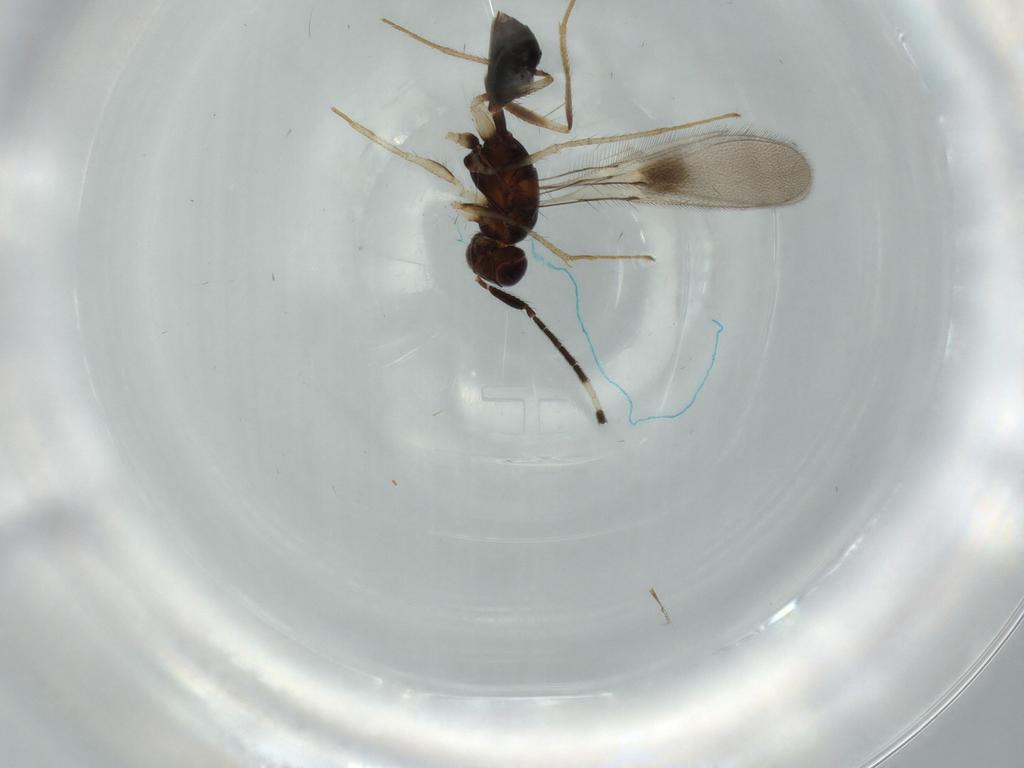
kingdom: Animalia
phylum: Arthropoda
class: Insecta
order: Hymenoptera
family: Mymaridae
